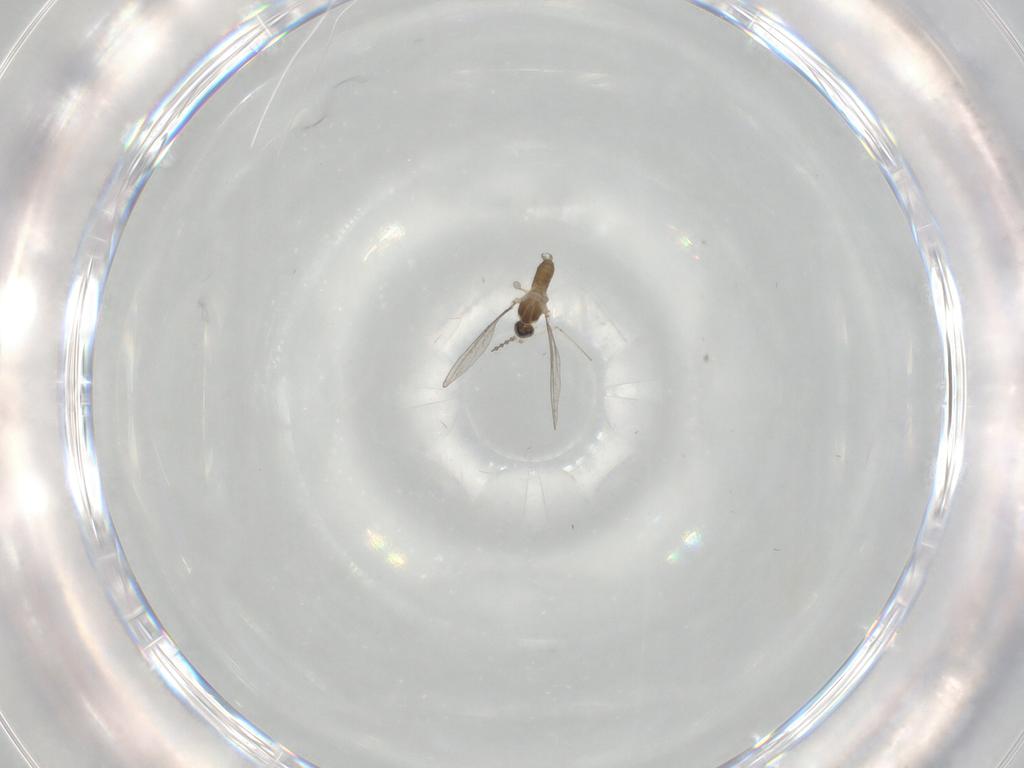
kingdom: Animalia
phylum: Arthropoda
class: Insecta
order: Diptera
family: Cecidomyiidae
